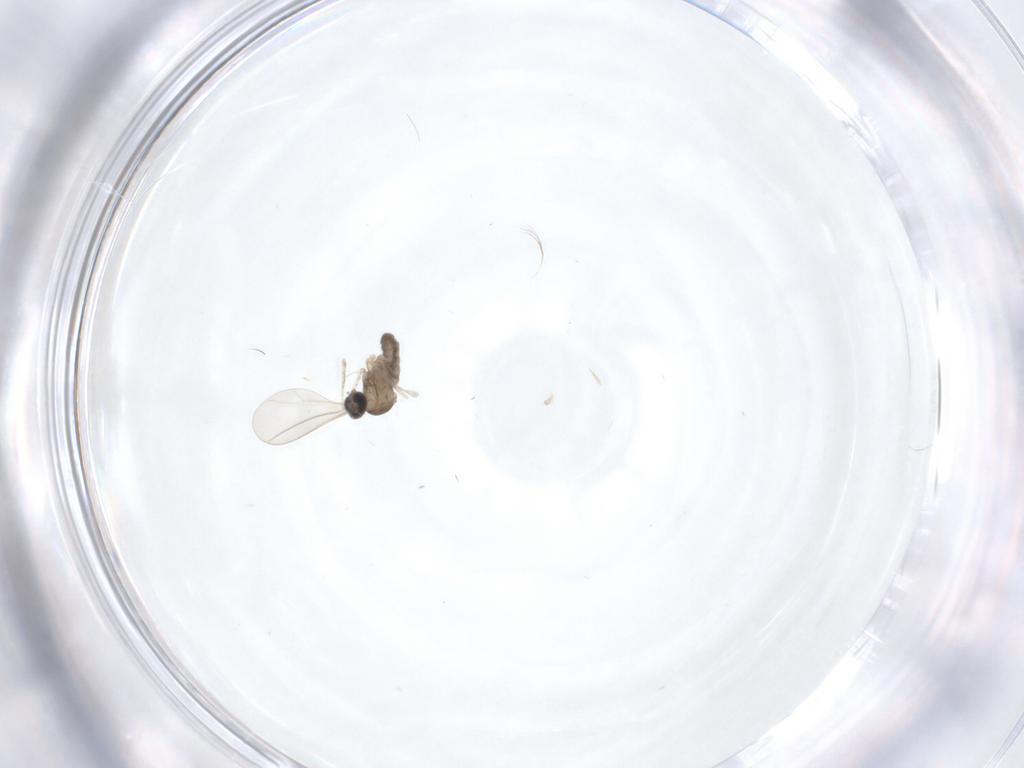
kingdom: Animalia
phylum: Arthropoda
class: Insecta
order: Diptera
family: Cecidomyiidae
